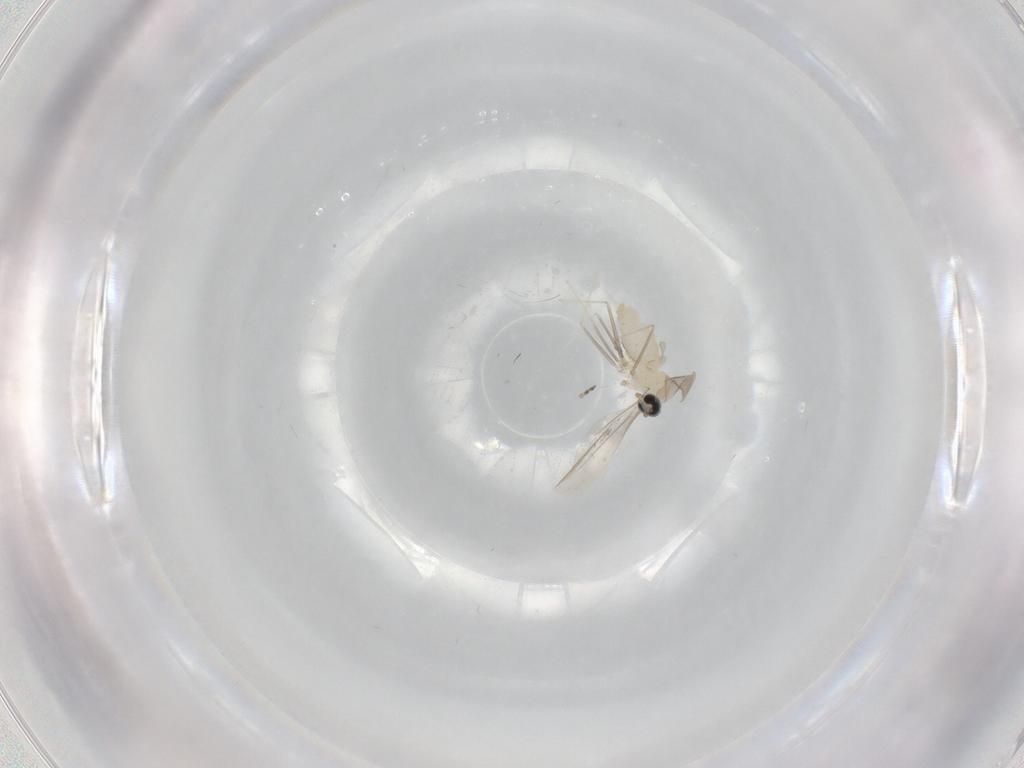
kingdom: Animalia
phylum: Arthropoda
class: Insecta
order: Diptera
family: Cecidomyiidae
